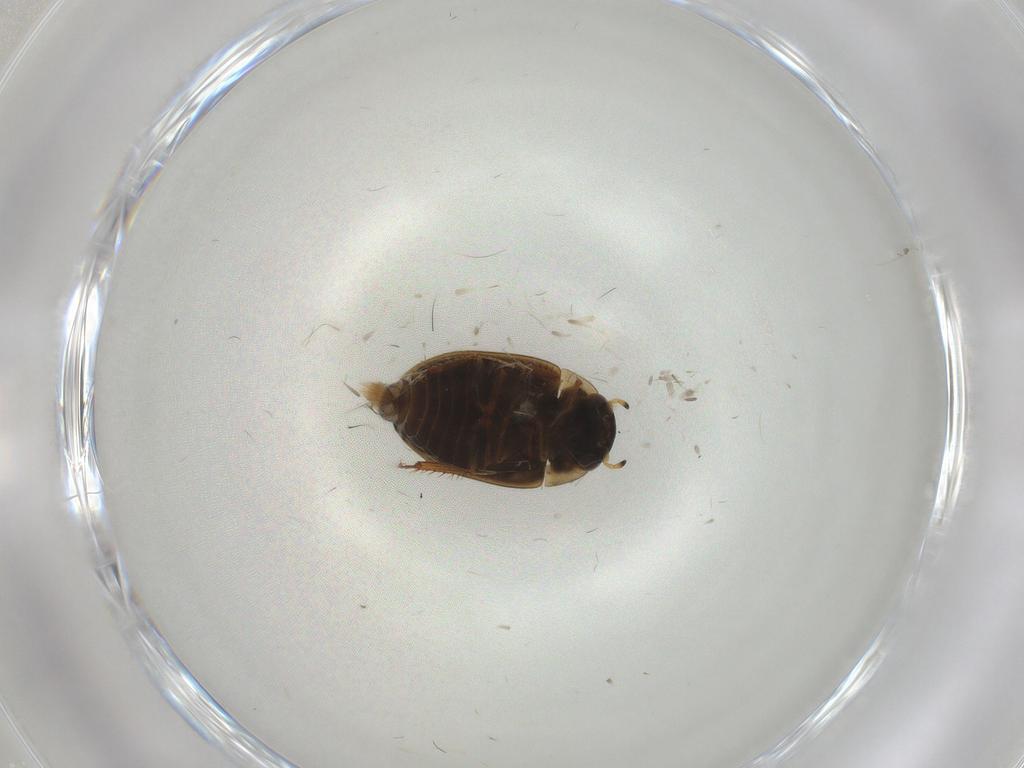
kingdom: Animalia
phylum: Arthropoda
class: Insecta
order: Coleoptera
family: Hydrophilidae
